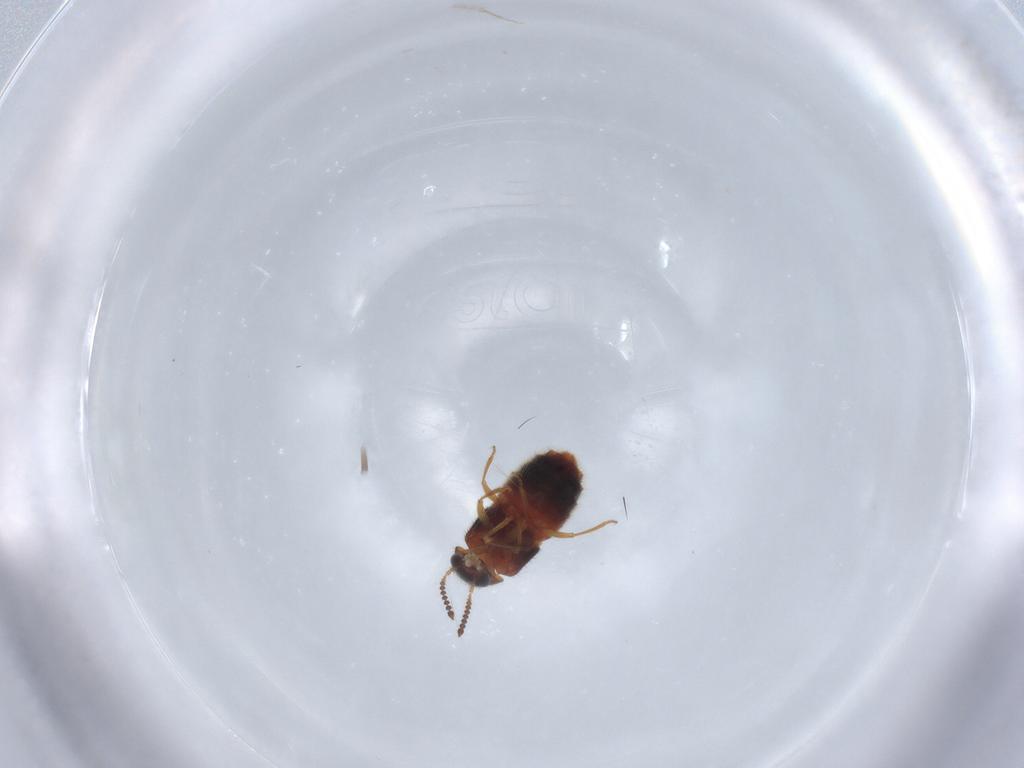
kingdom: Animalia
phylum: Arthropoda
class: Insecta
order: Coleoptera
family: Staphylinidae
